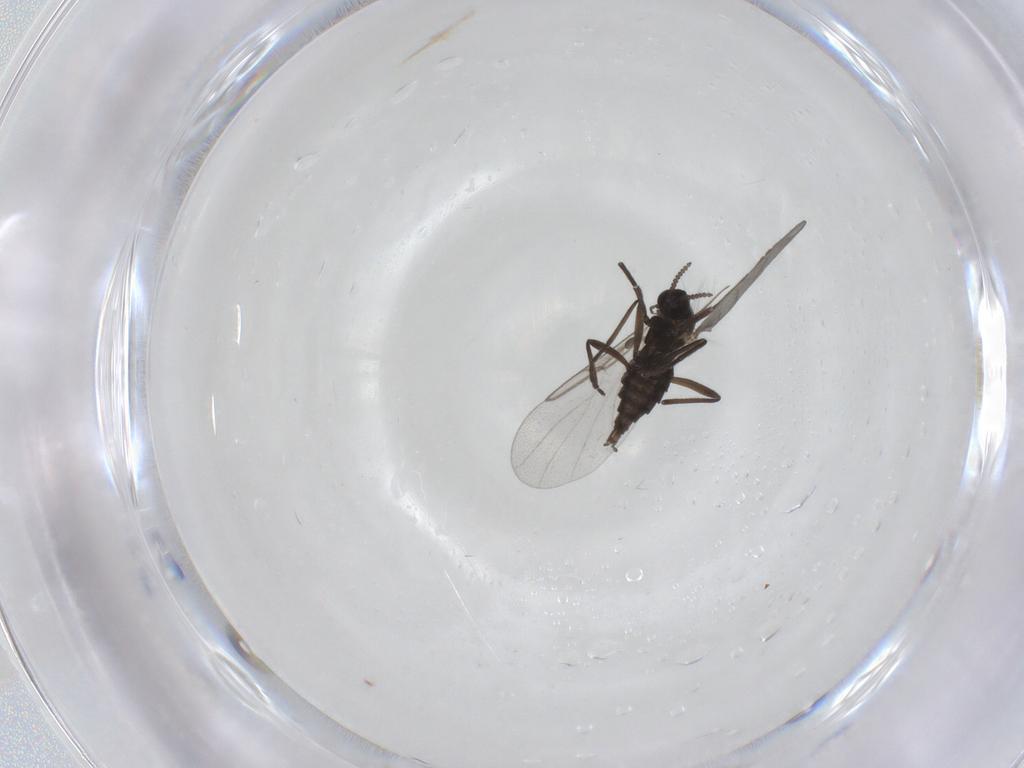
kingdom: Animalia
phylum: Arthropoda
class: Insecta
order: Diptera
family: Cecidomyiidae
